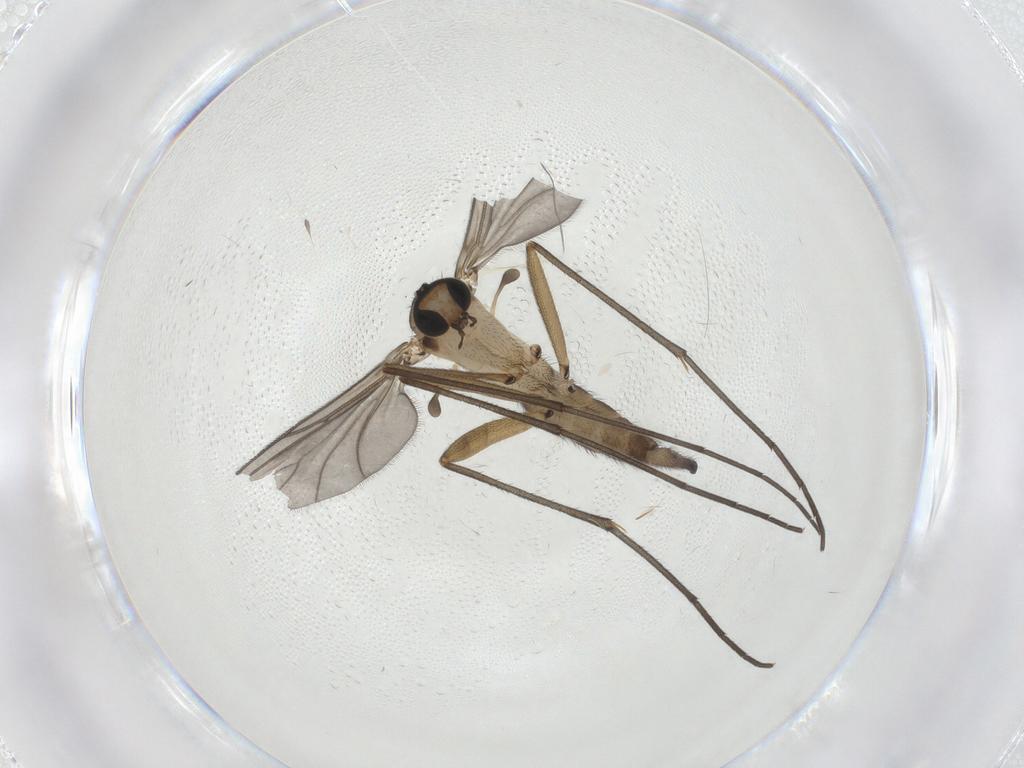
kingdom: Animalia
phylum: Arthropoda
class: Insecta
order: Diptera
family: Sciaridae
